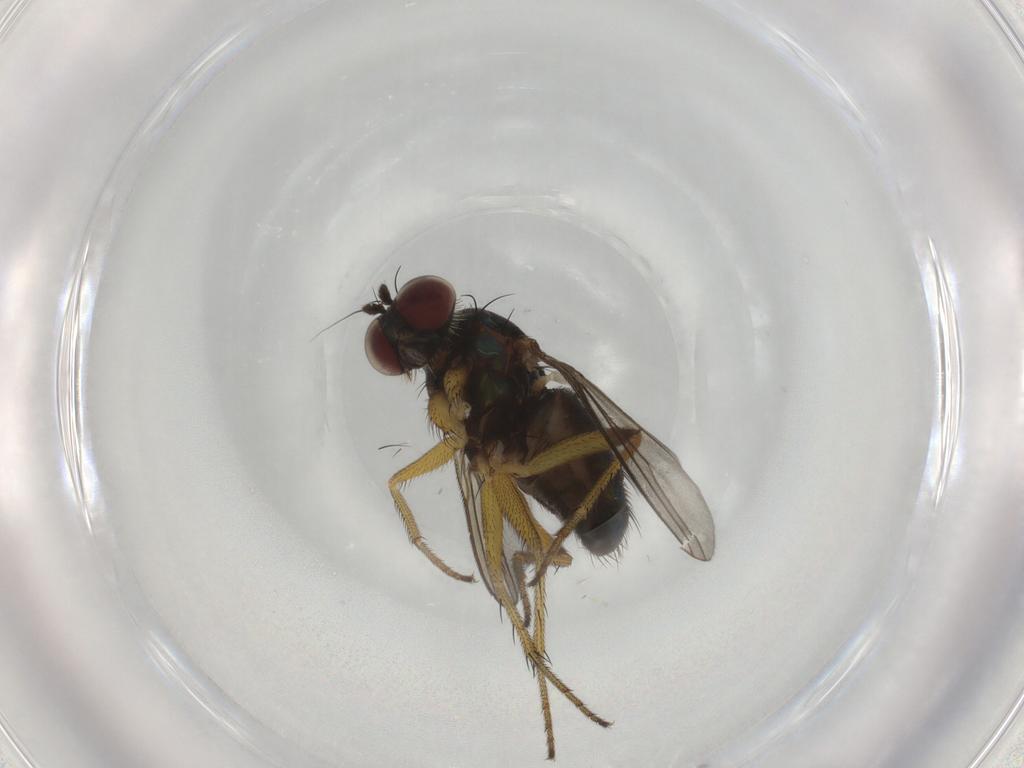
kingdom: Animalia
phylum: Arthropoda
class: Insecta
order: Diptera
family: Dolichopodidae
